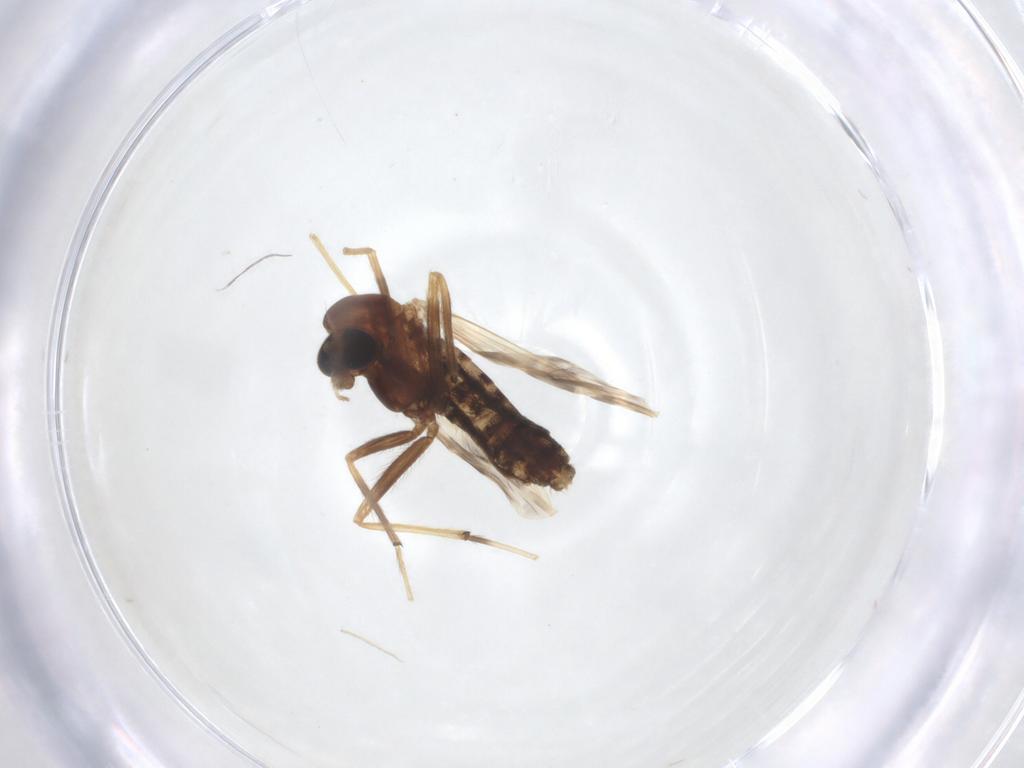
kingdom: Animalia
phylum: Arthropoda
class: Insecta
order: Diptera
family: Chironomidae
